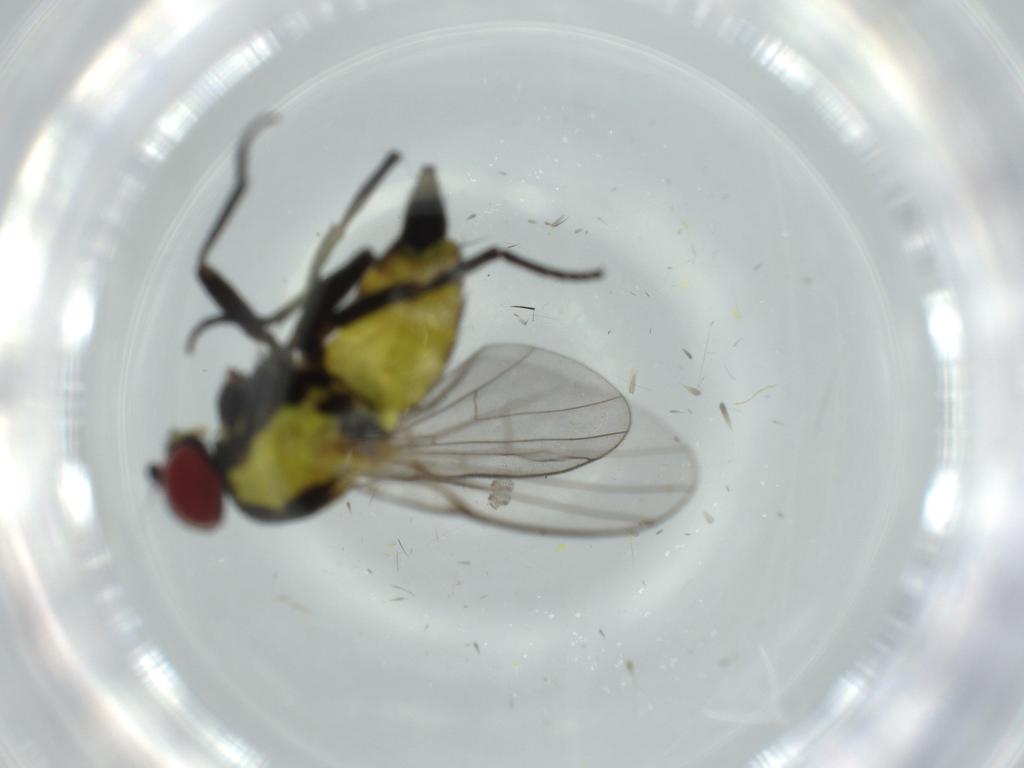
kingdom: Animalia
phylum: Arthropoda
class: Insecta
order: Diptera
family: Agromyzidae
